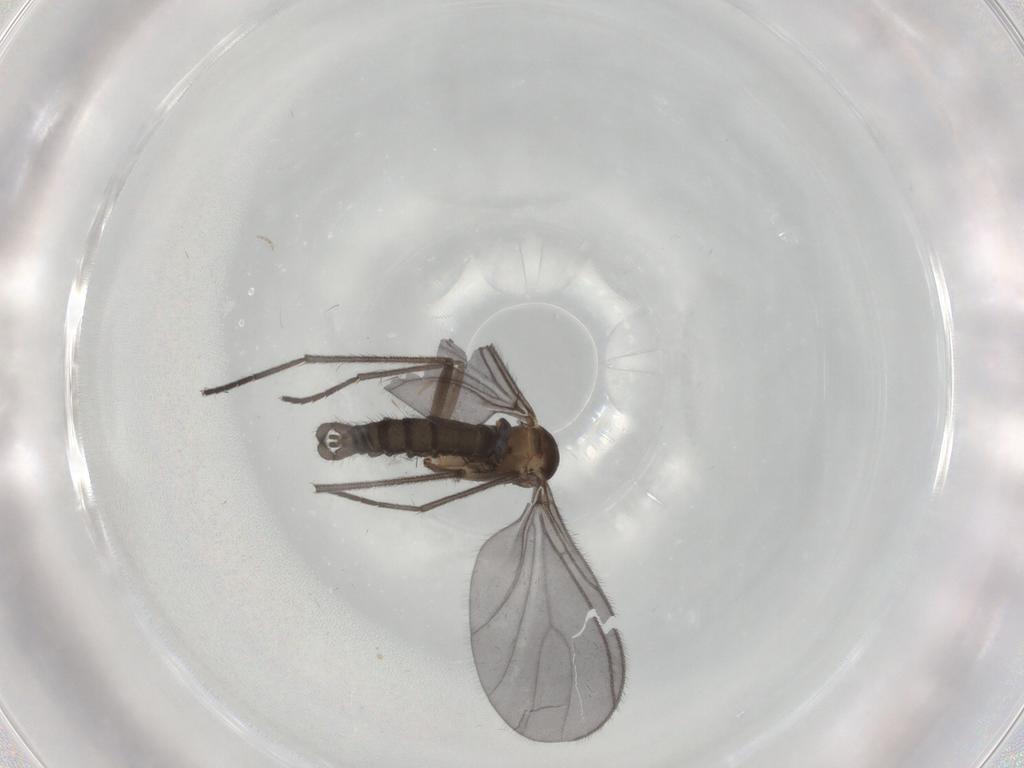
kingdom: Animalia
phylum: Arthropoda
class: Insecta
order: Diptera
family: Sciaridae
